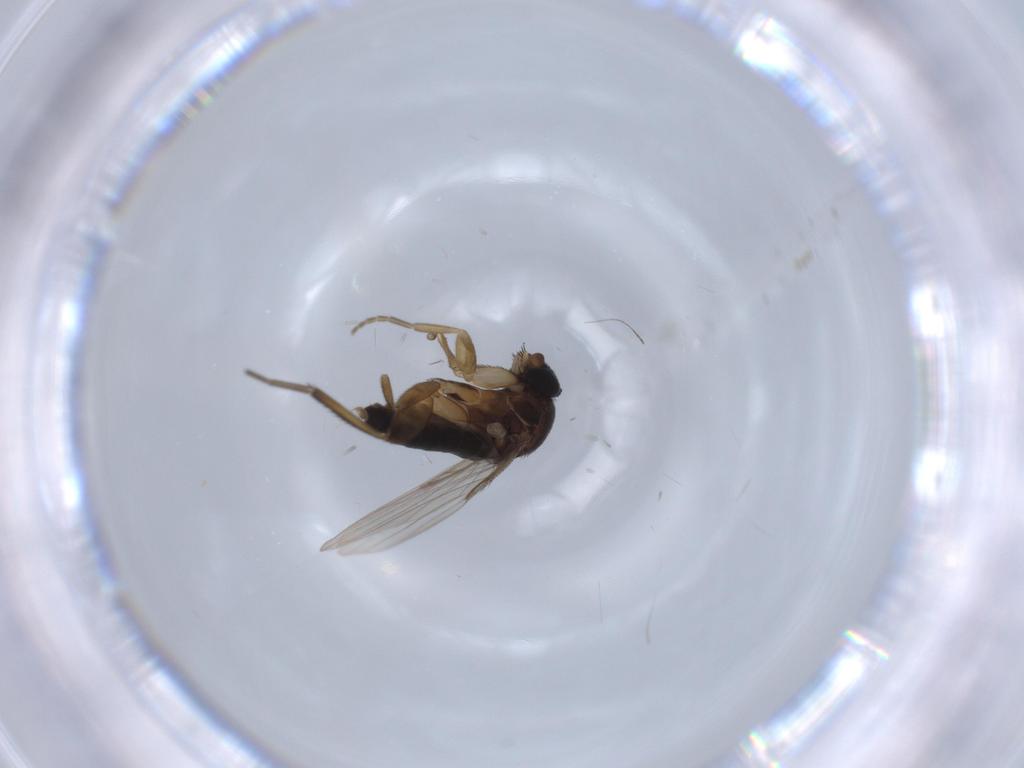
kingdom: Animalia
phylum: Arthropoda
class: Insecta
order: Diptera
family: Phoridae
